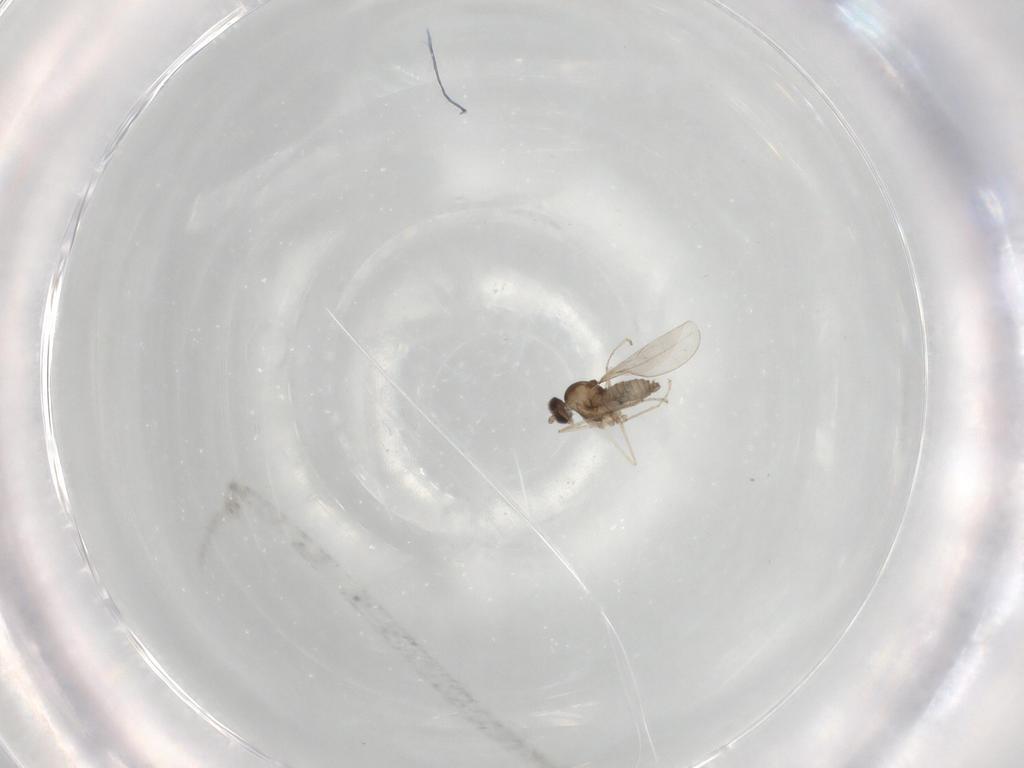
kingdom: Animalia
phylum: Arthropoda
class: Insecta
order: Diptera
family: Cecidomyiidae
